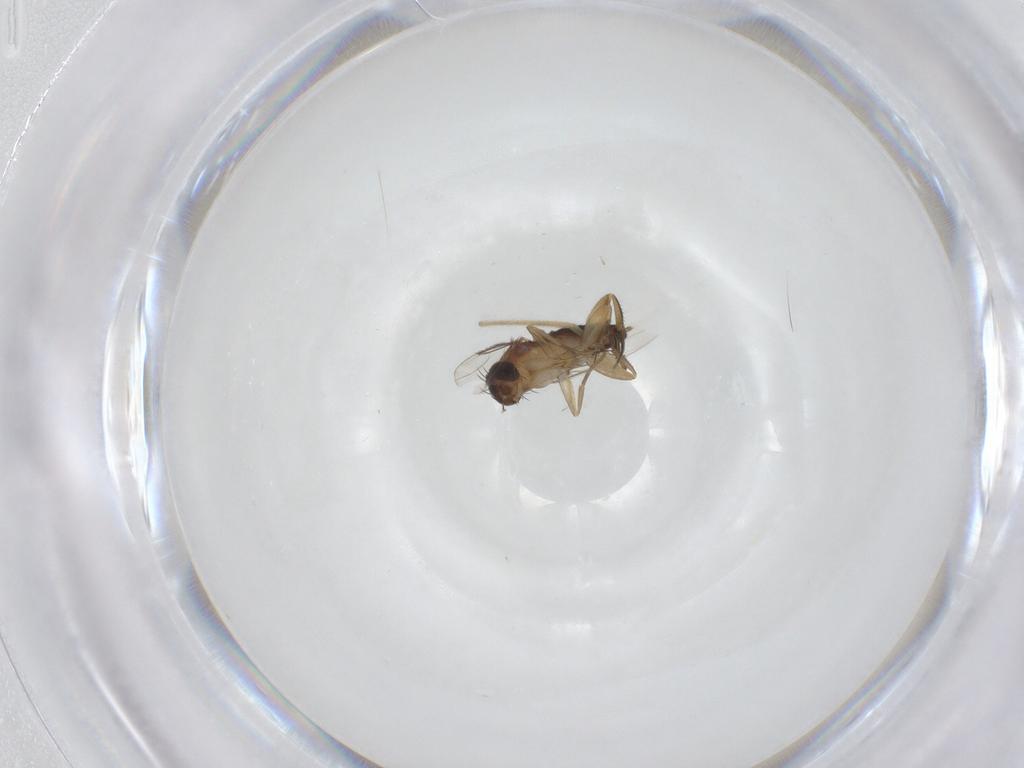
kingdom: Animalia
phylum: Arthropoda
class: Insecta
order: Diptera
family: Phoridae
